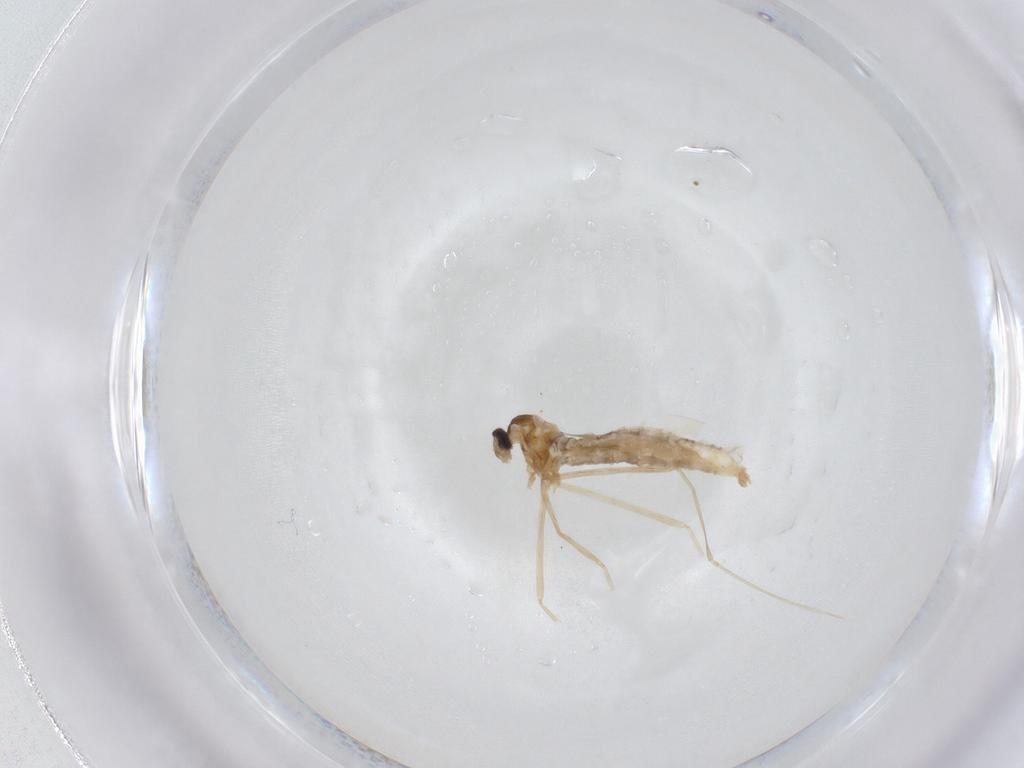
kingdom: Animalia
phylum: Arthropoda
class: Insecta
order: Diptera
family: Cecidomyiidae
